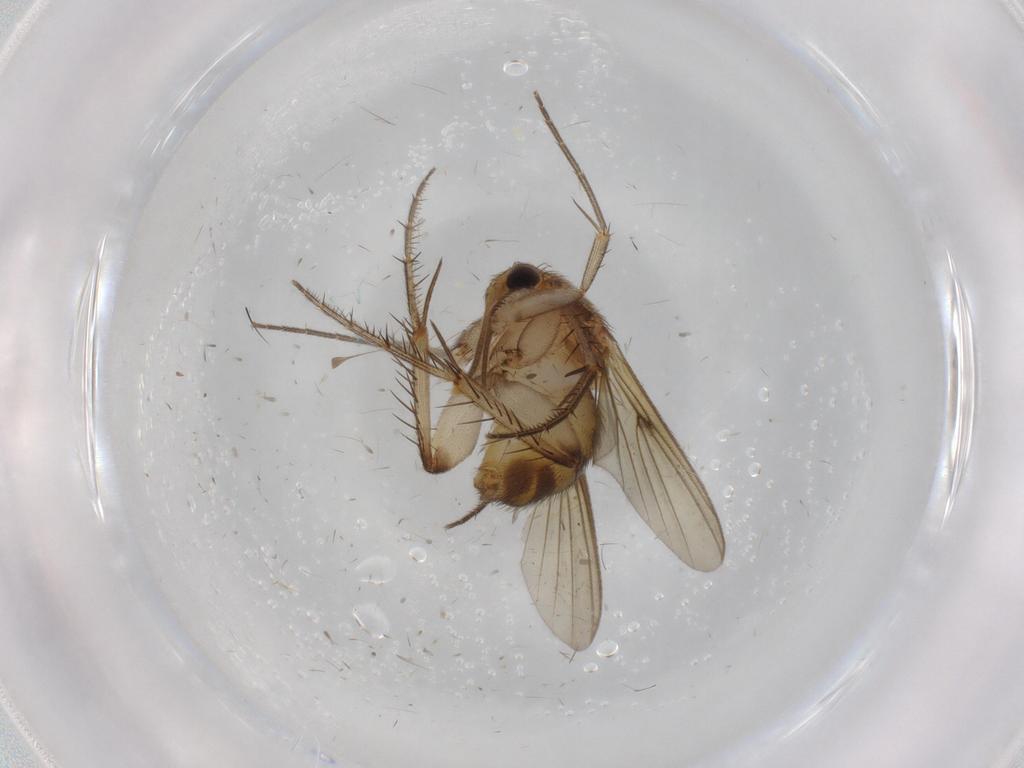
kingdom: Animalia
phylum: Arthropoda
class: Insecta
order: Diptera
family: Mycetophilidae
